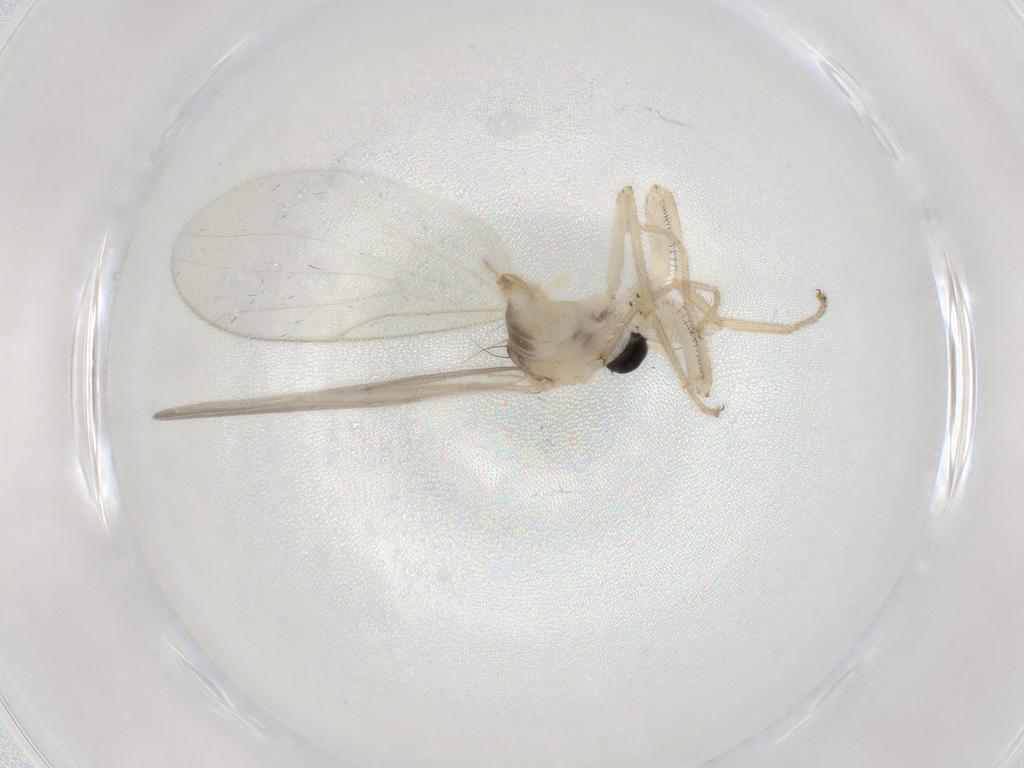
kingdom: Animalia
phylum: Arthropoda
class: Insecta
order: Diptera
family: Hybotidae
